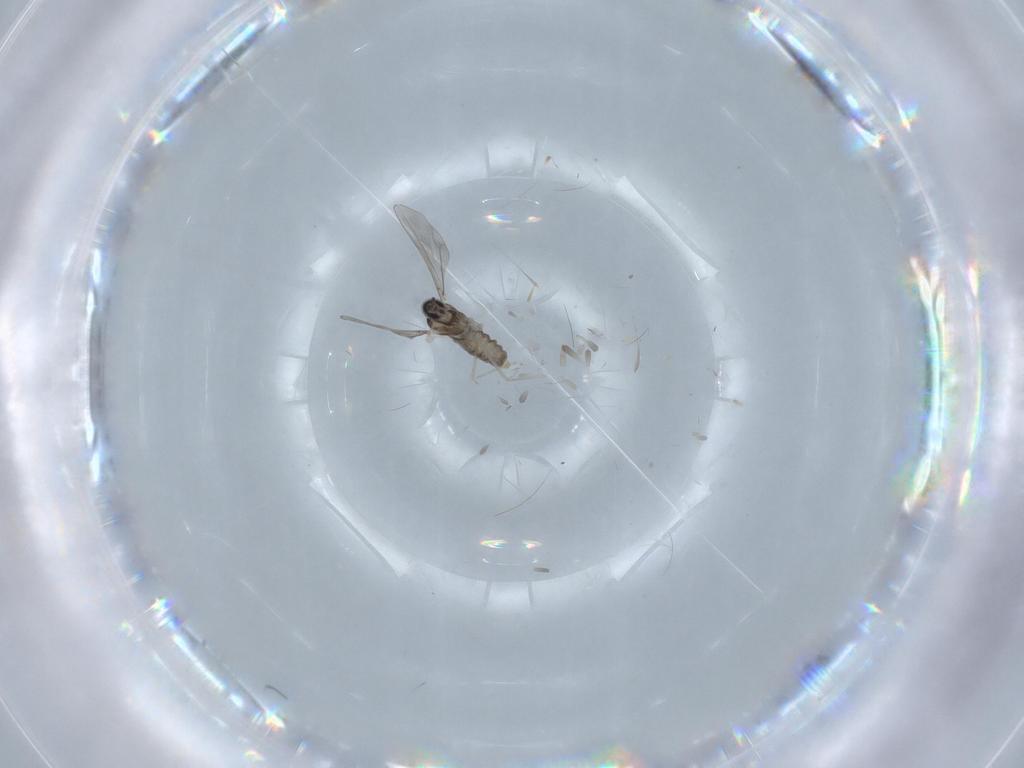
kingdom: Animalia
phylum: Arthropoda
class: Insecta
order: Diptera
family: Cecidomyiidae
